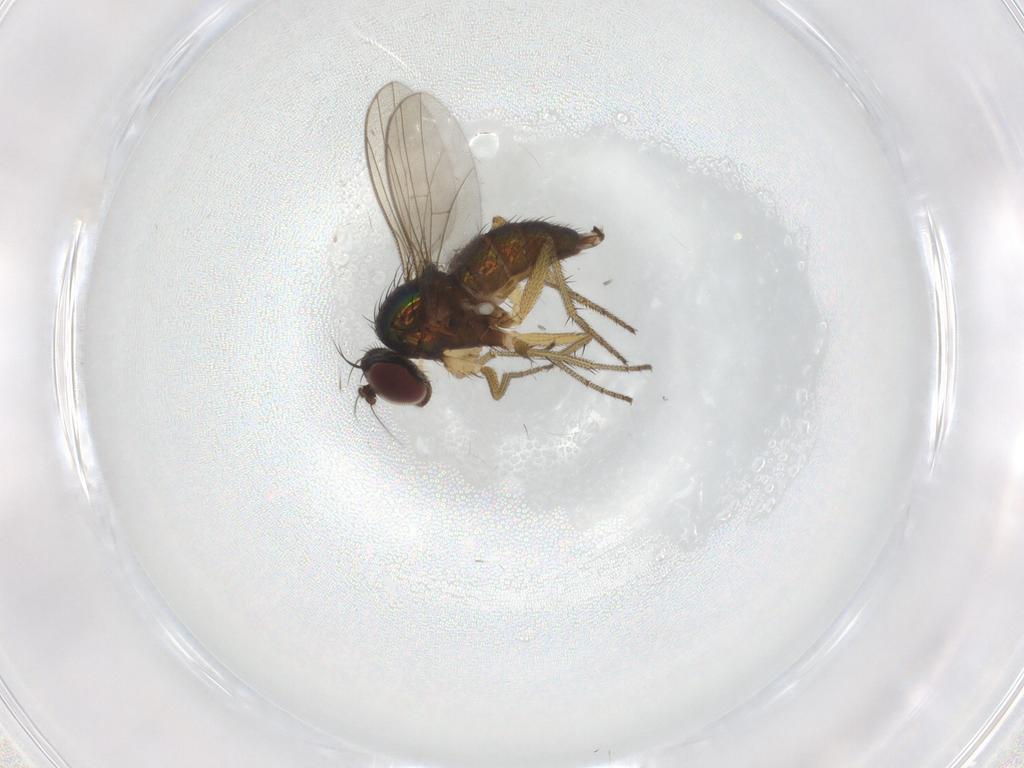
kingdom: Animalia
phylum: Arthropoda
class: Insecta
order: Diptera
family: Chironomidae
